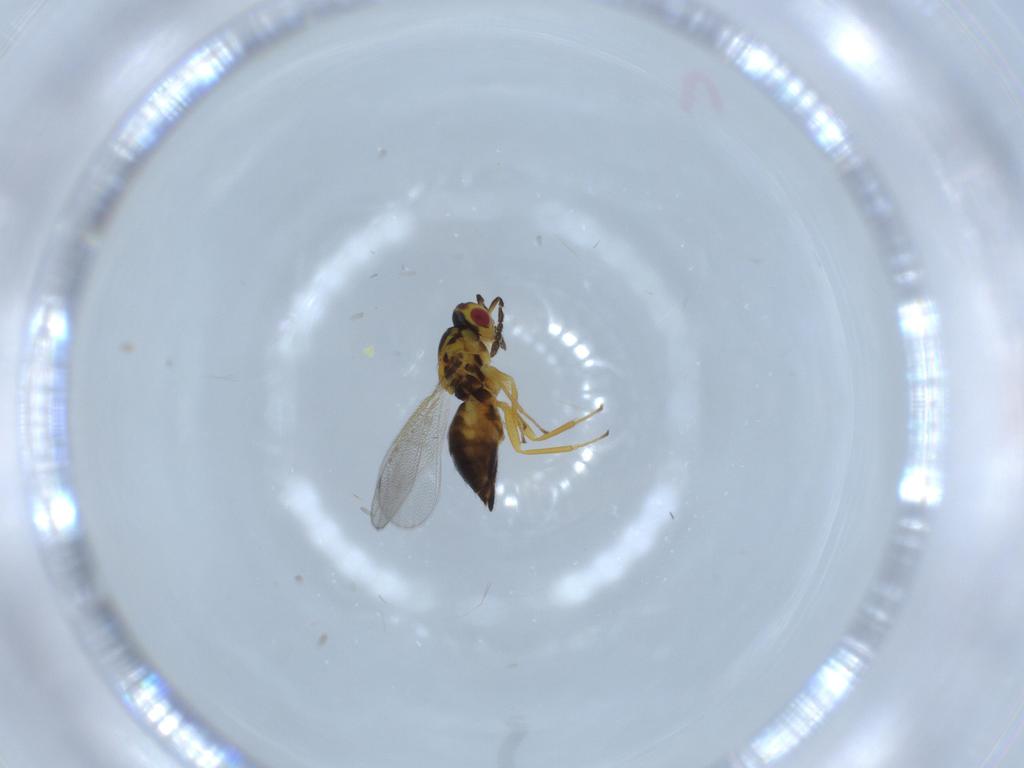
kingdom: Animalia
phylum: Arthropoda
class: Insecta
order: Hymenoptera
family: Eulophidae
